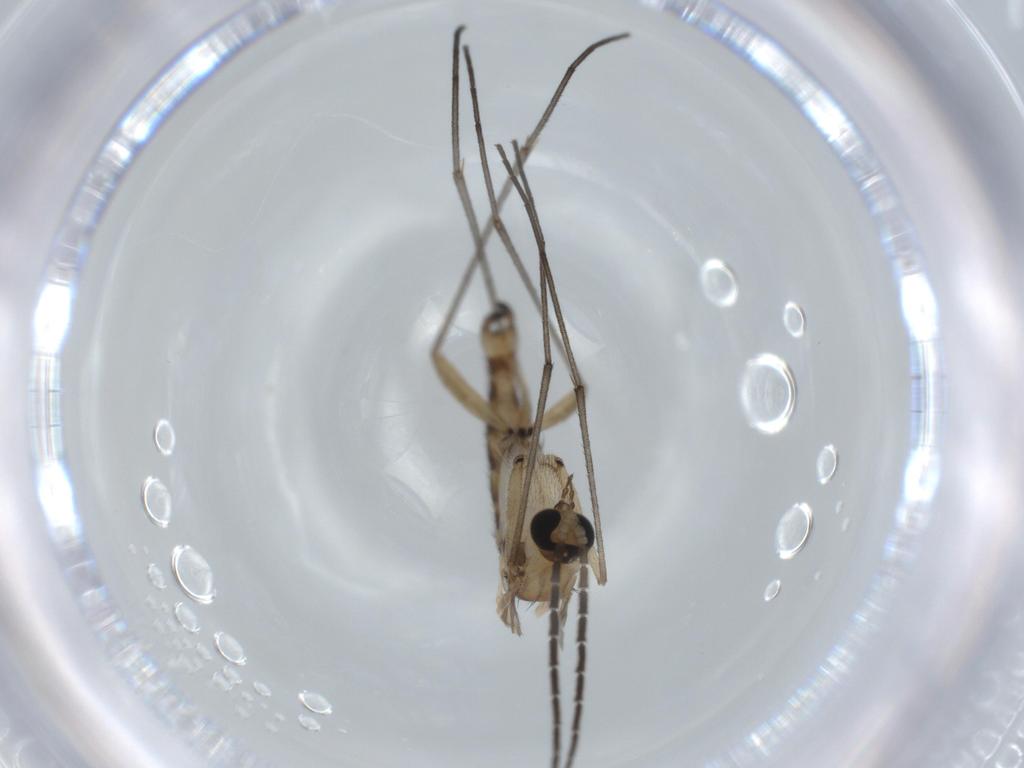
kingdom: Animalia
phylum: Arthropoda
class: Insecta
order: Diptera
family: Sciaridae
